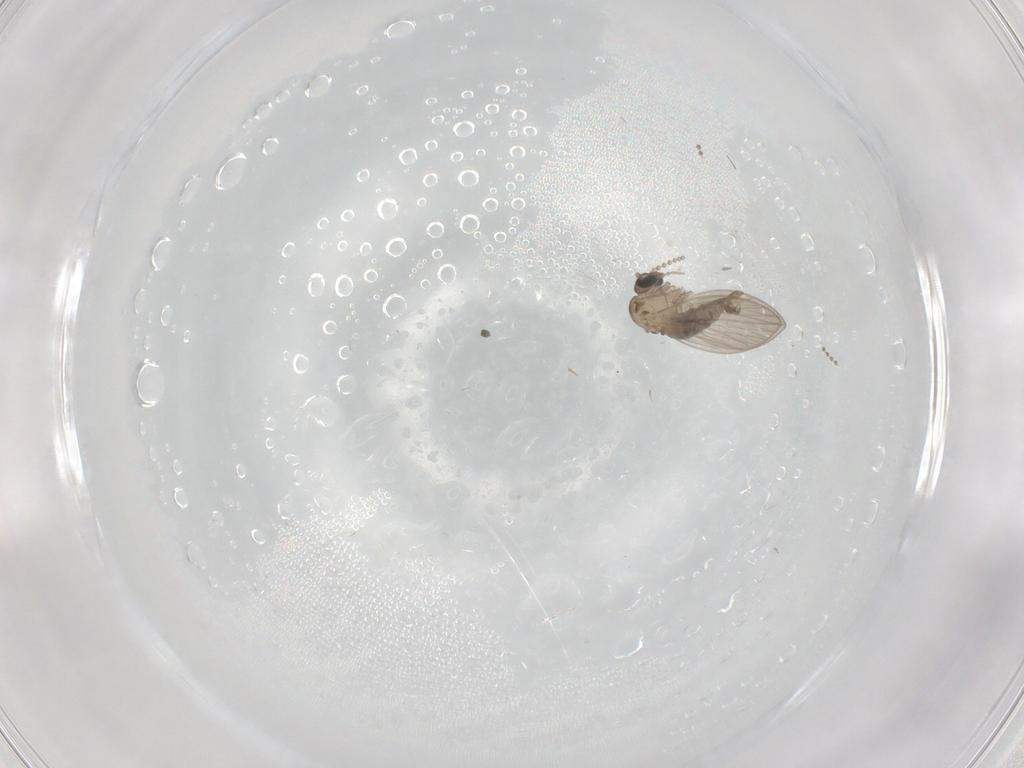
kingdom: Animalia
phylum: Arthropoda
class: Insecta
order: Diptera
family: Psychodidae
